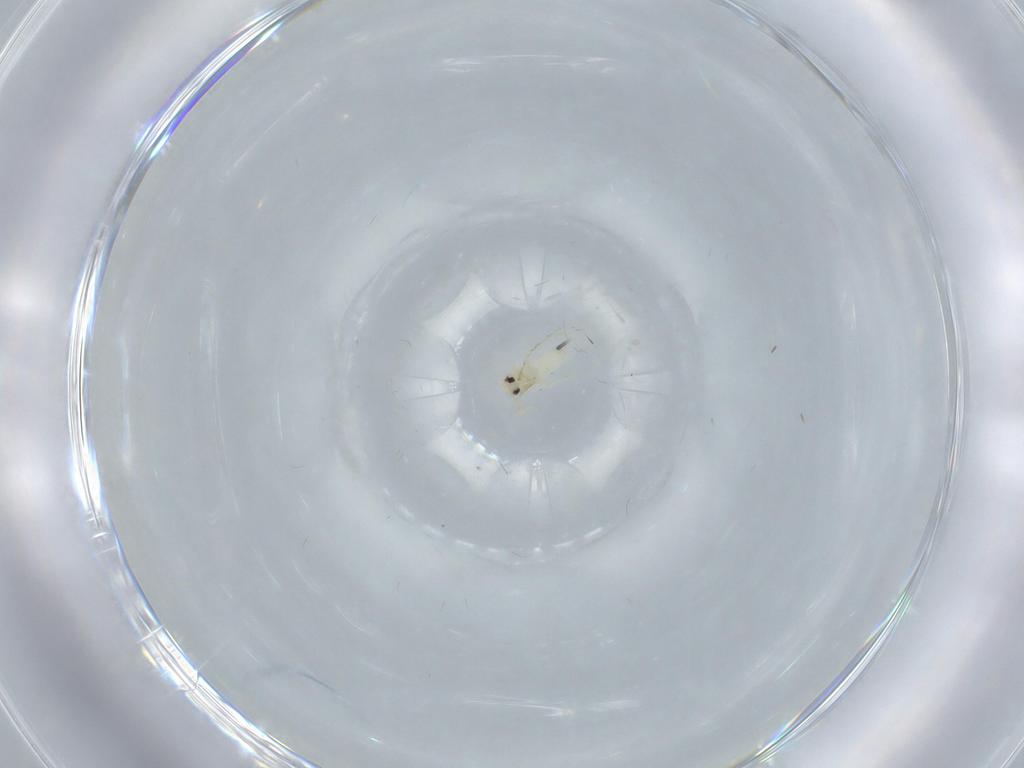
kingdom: Animalia
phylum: Arthropoda
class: Insecta
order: Hemiptera
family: Aleyrodidae
